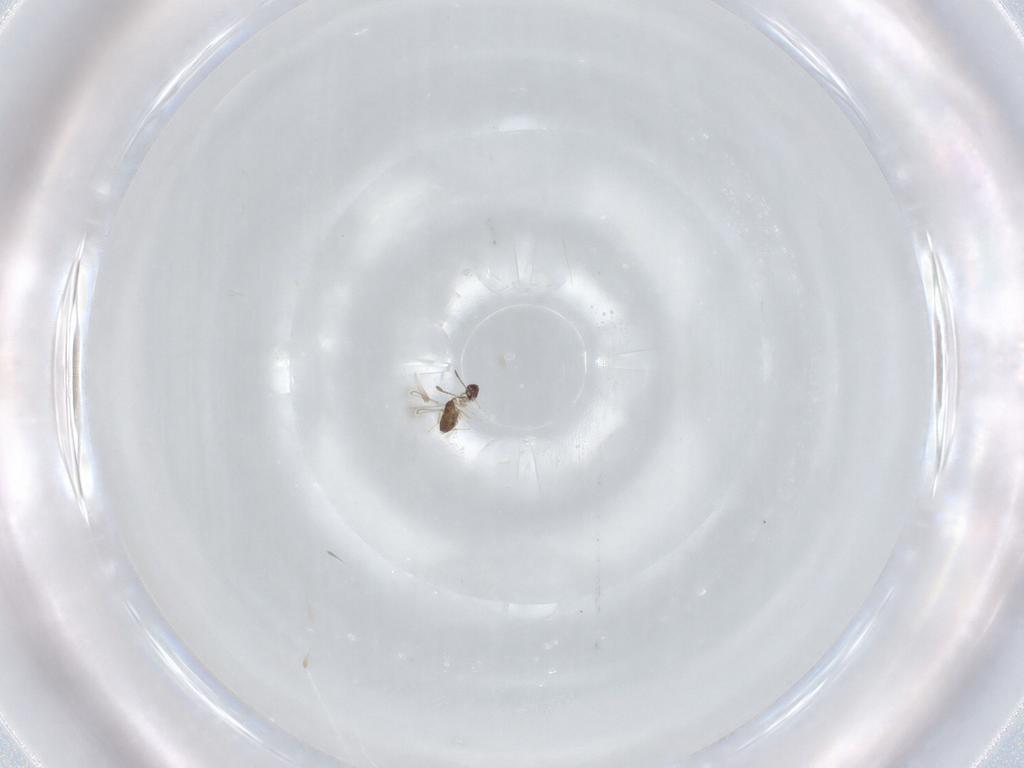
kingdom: Animalia
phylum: Arthropoda
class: Insecta
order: Hymenoptera
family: Mymaridae
